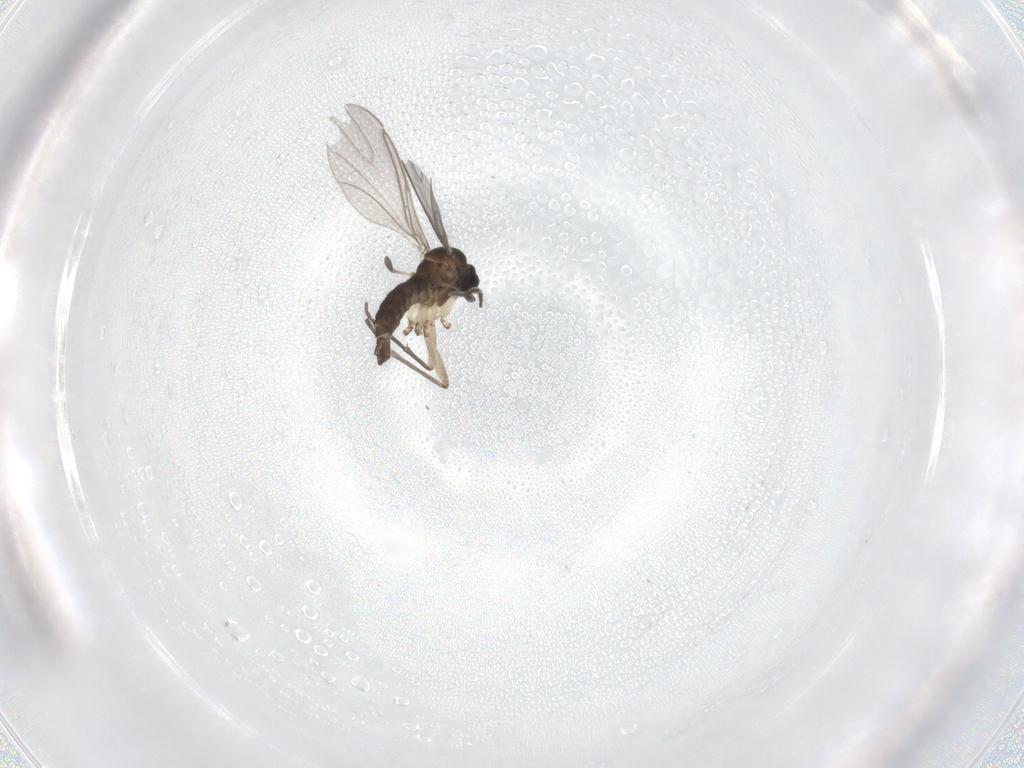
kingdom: Animalia
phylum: Arthropoda
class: Insecta
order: Diptera
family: Sciaridae
